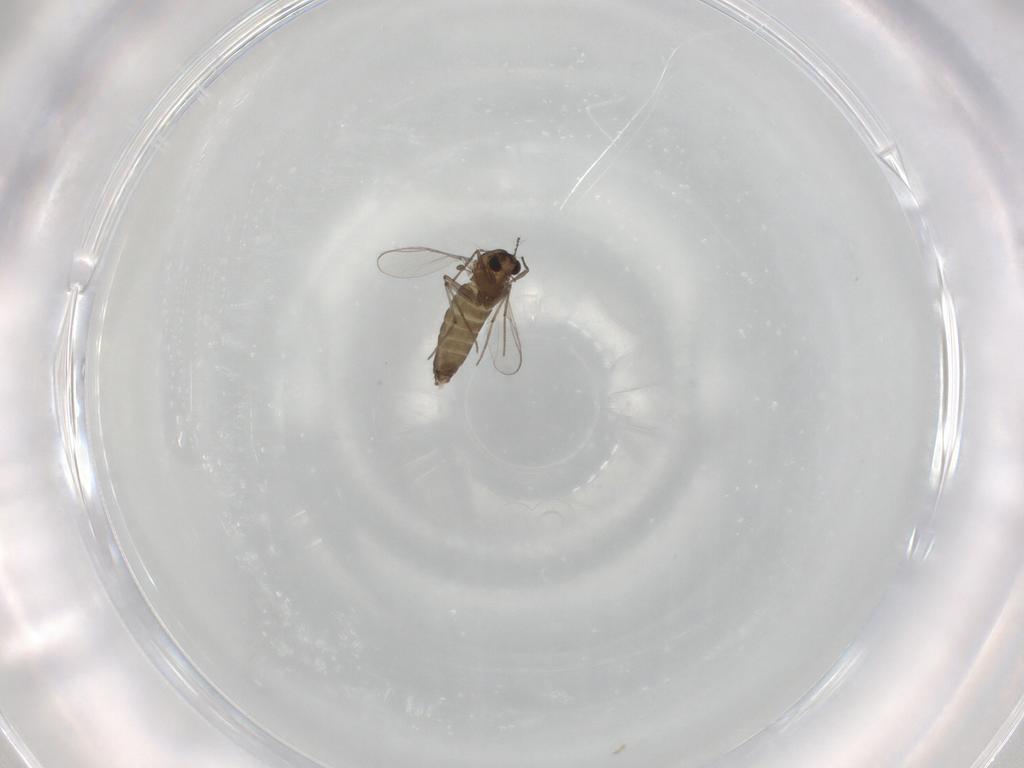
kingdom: Animalia
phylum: Arthropoda
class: Insecta
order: Diptera
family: Chironomidae
